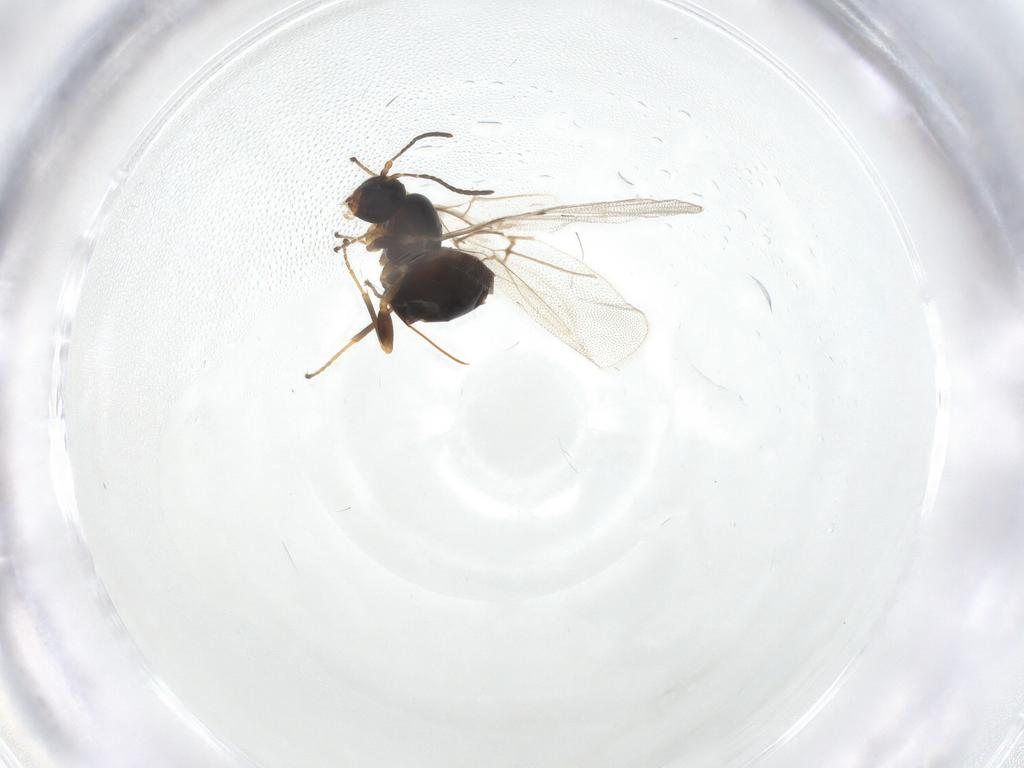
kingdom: Animalia
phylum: Arthropoda
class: Insecta
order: Hymenoptera
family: Cynipidae
